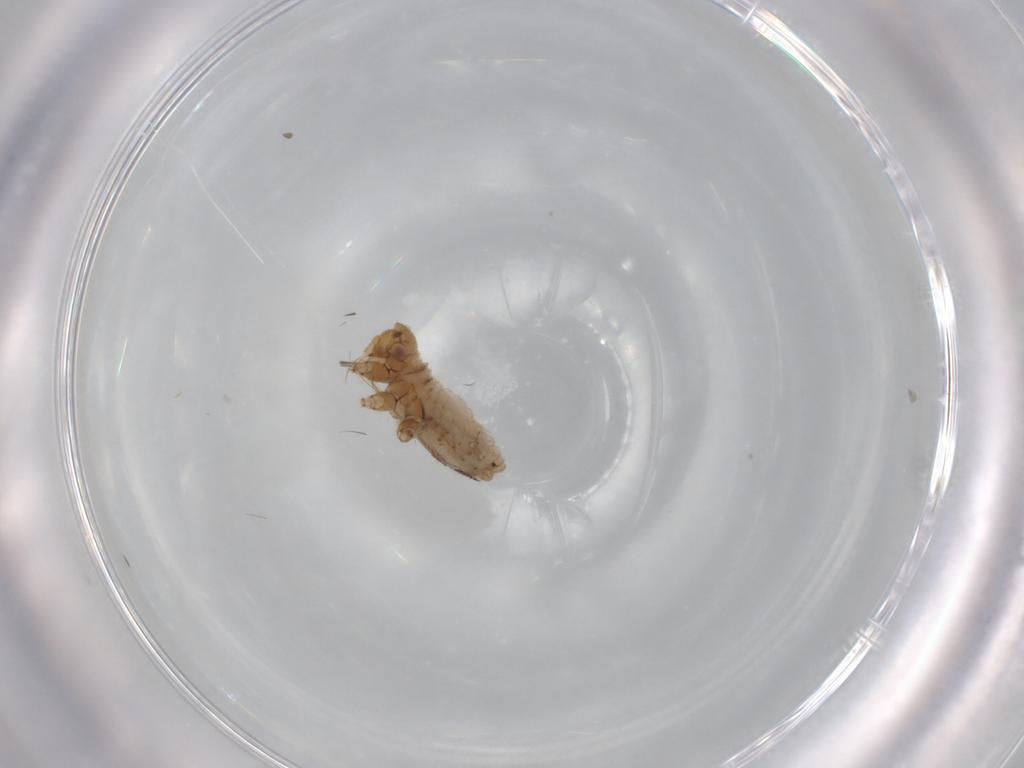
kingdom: Animalia
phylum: Arthropoda
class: Insecta
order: Hemiptera
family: Aphididae
